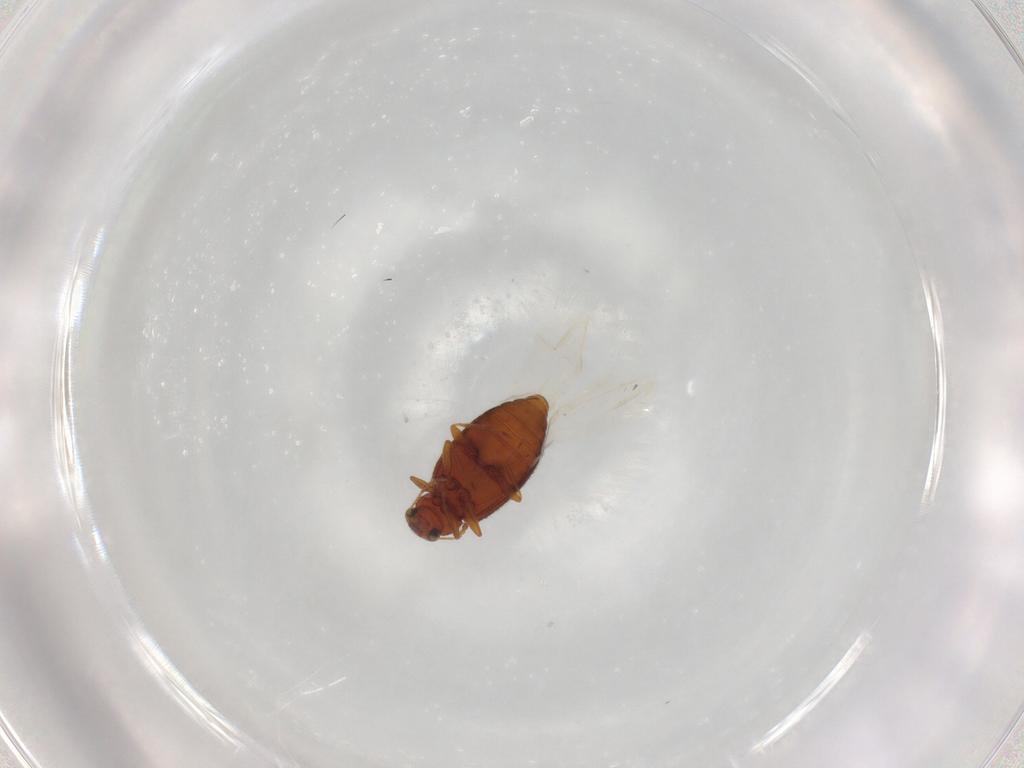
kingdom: Animalia
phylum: Arthropoda
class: Insecta
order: Coleoptera
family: Latridiidae
